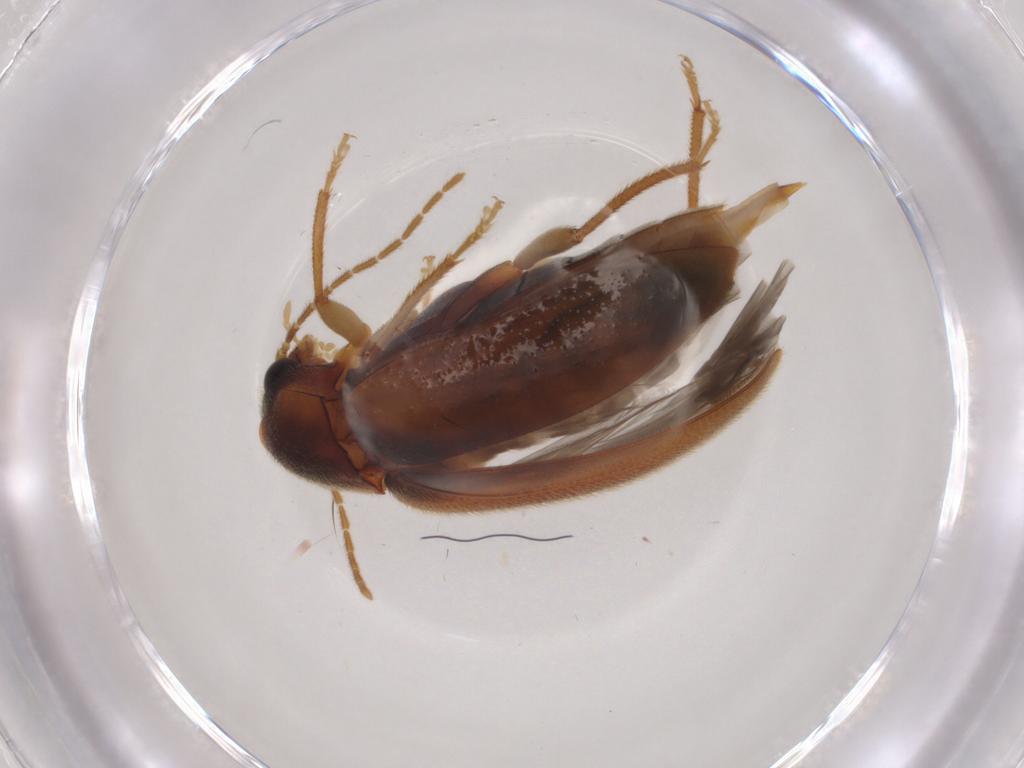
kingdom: Animalia
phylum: Arthropoda
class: Insecta
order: Coleoptera
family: Ptilodactylidae
